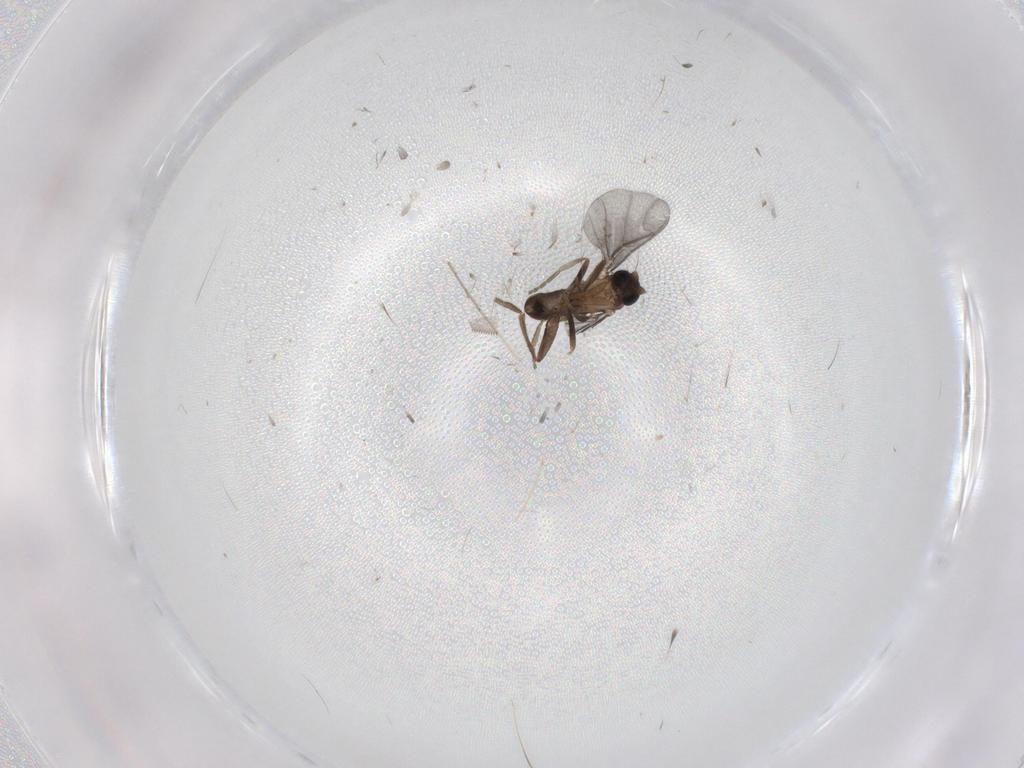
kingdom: Animalia
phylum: Arthropoda
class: Insecta
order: Diptera
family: Phoridae
